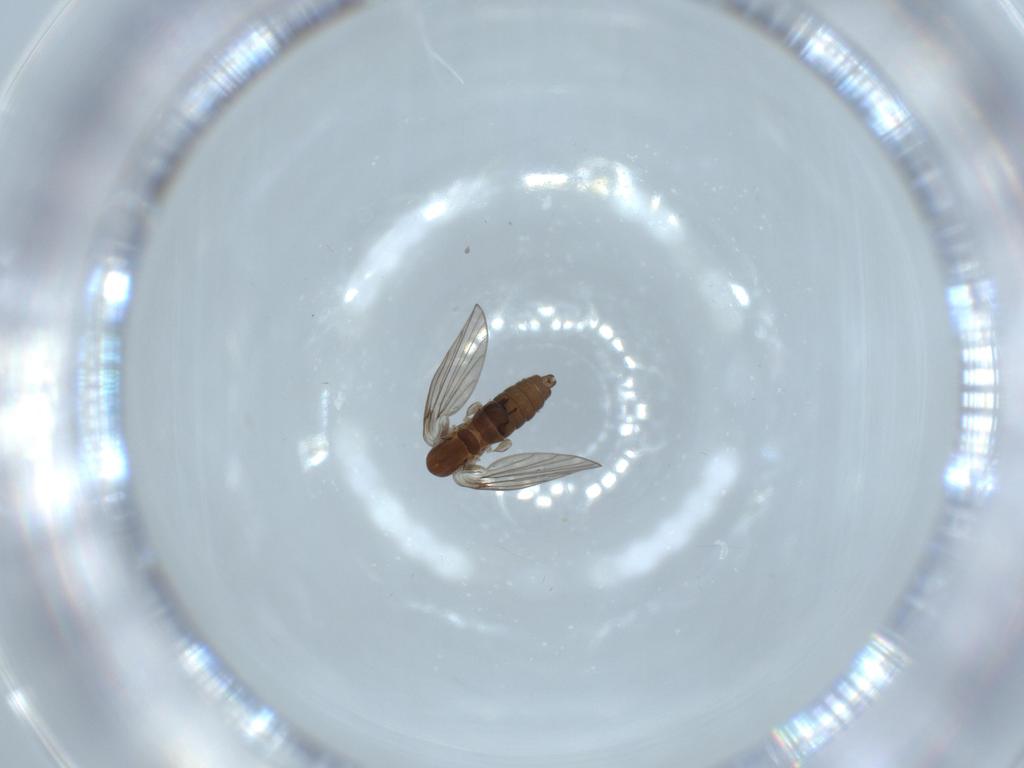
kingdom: Animalia
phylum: Arthropoda
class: Insecta
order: Diptera
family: Psychodidae
